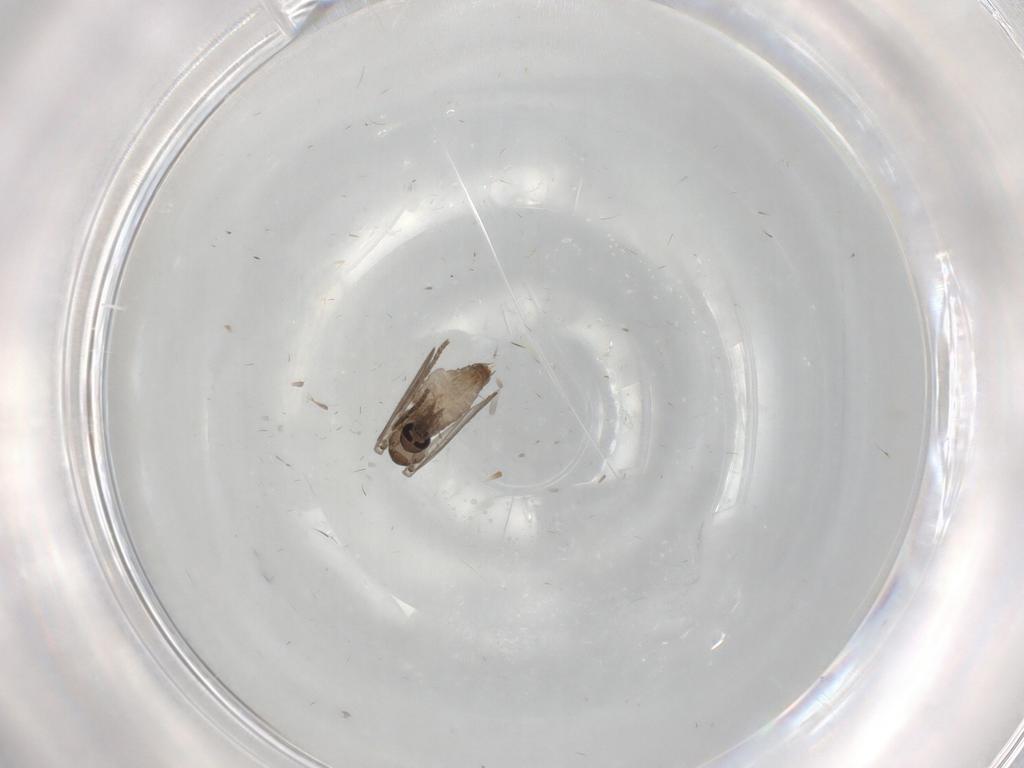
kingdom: Animalia
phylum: Arthropoda
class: Insecta
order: Diptera
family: Psychodidae
